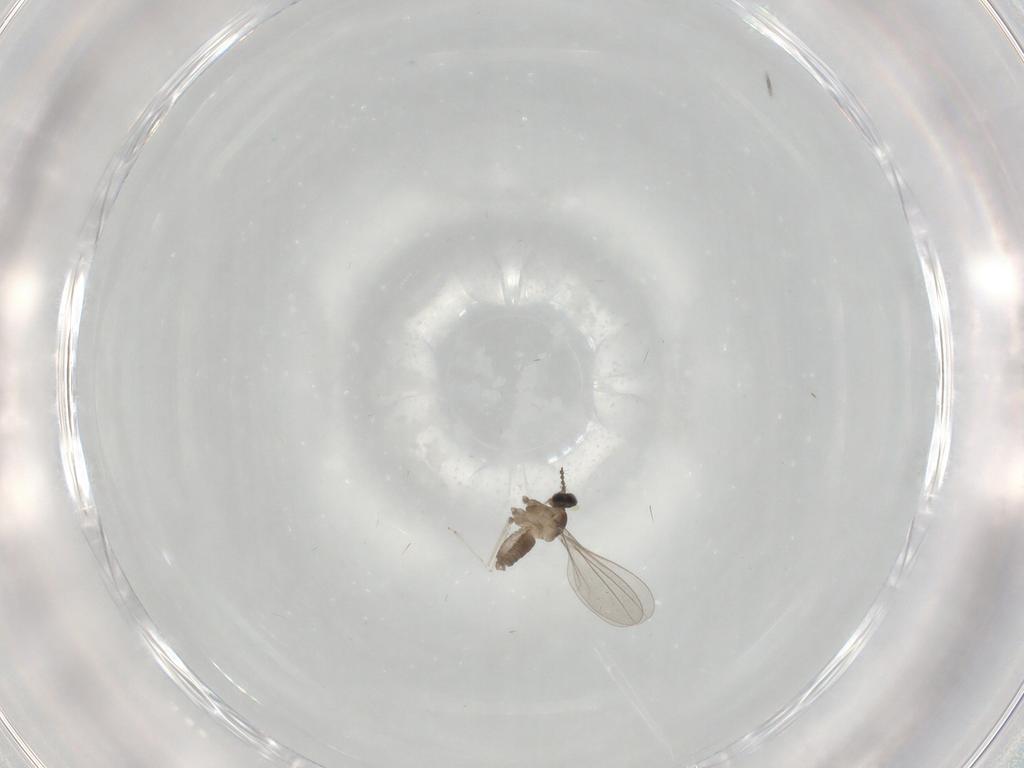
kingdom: Animalia
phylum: Arthropoda
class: Insecta
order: Diptera
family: Cecidomyiidae
